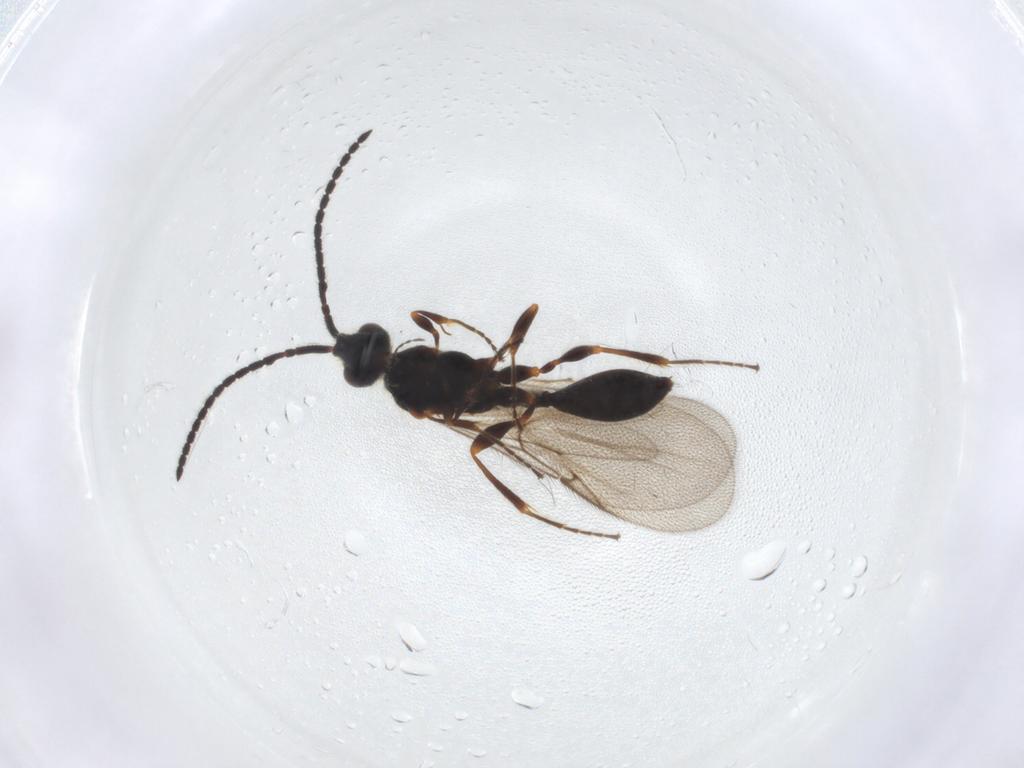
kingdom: Animalia
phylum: Arthropoda
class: Insecta
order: Hymenoptera
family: Diapriidae
